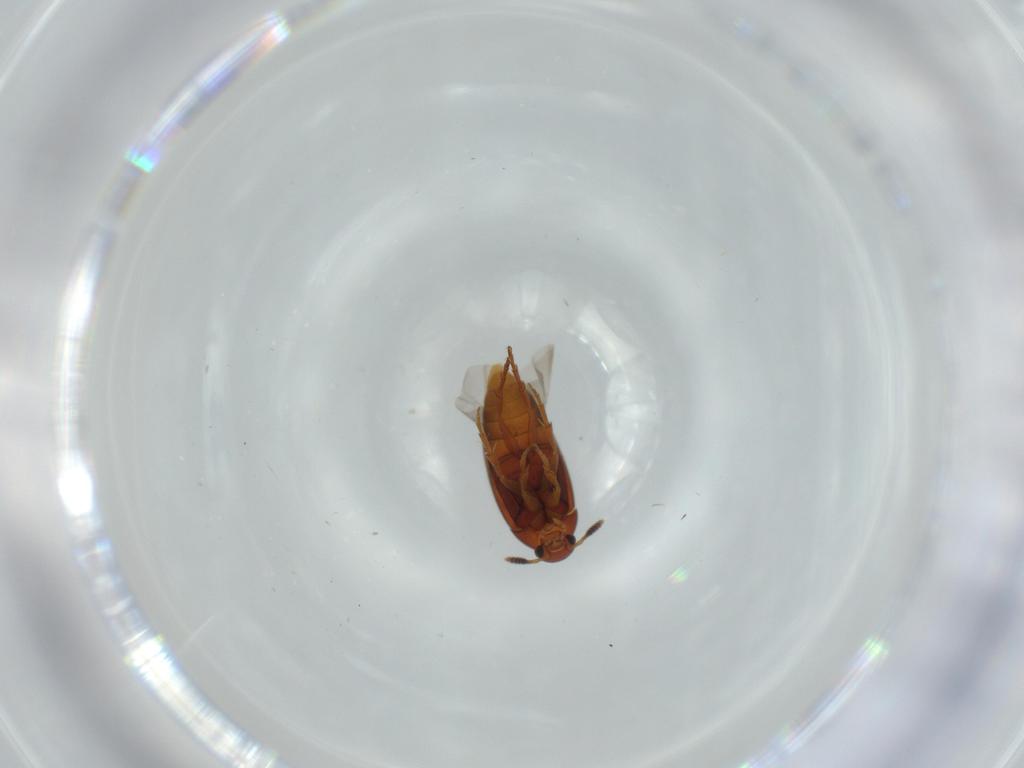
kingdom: Animalia
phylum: Arthropoda
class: Insecta
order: Coleoptera
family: Scraptiidae
